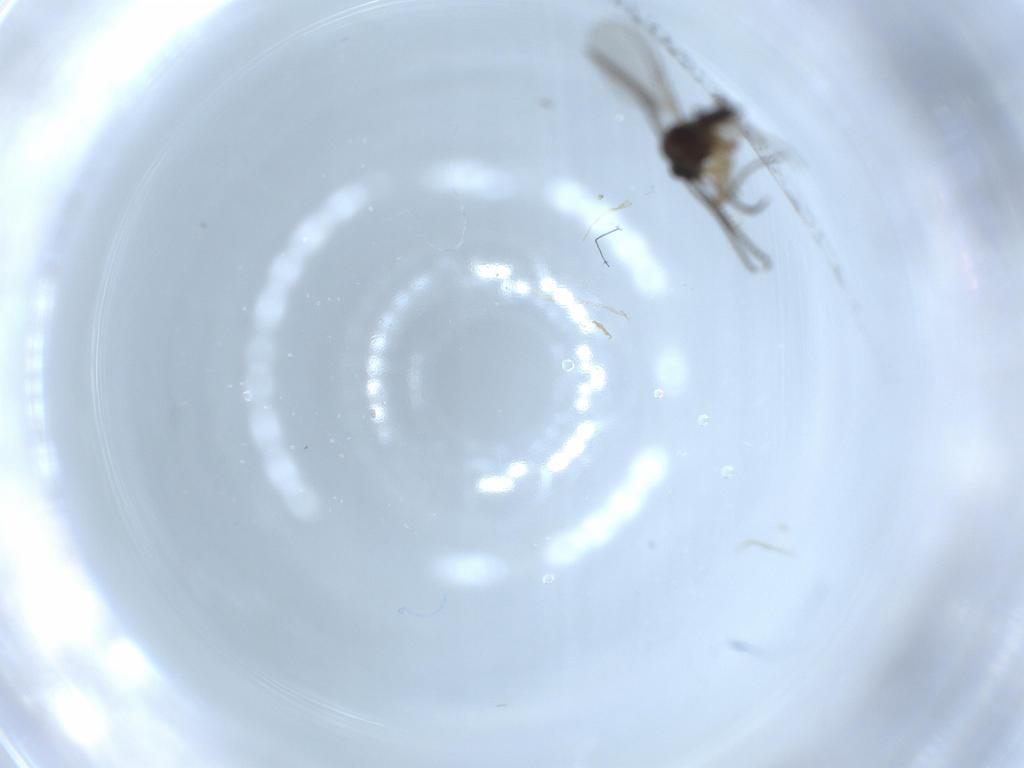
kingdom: Animalia
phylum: Arthropoda
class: Insecta
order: Diptera
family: Sciaridae
